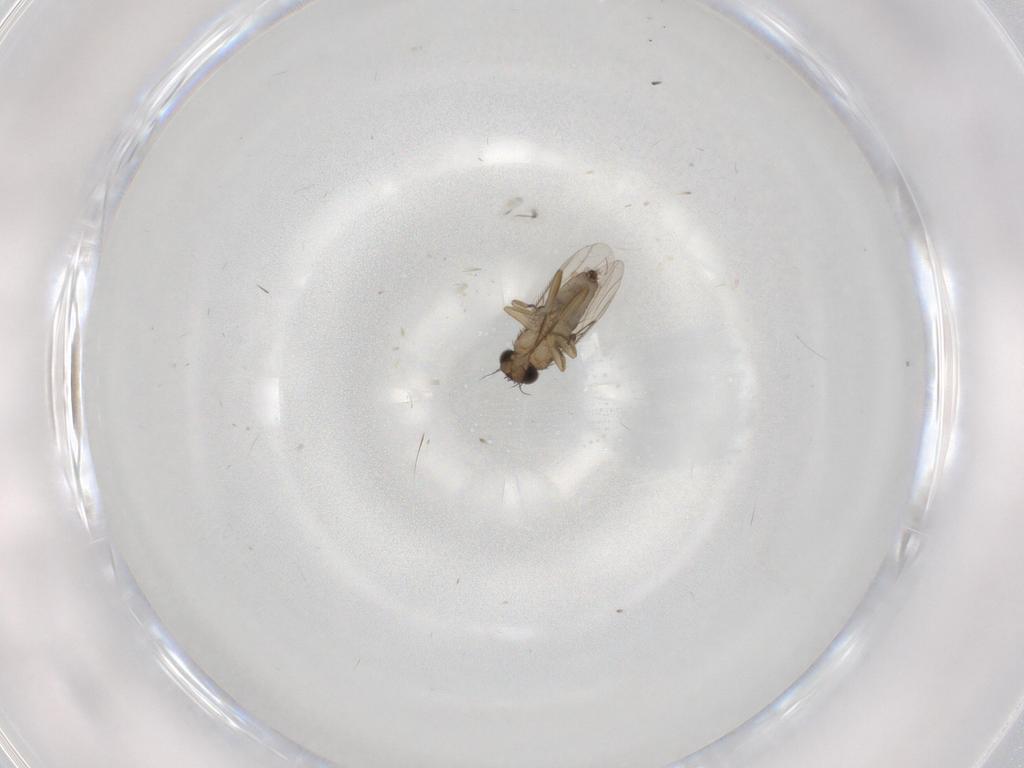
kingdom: Animalia
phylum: Arthropoda
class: Insecta
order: Diptera
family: Phoridae
